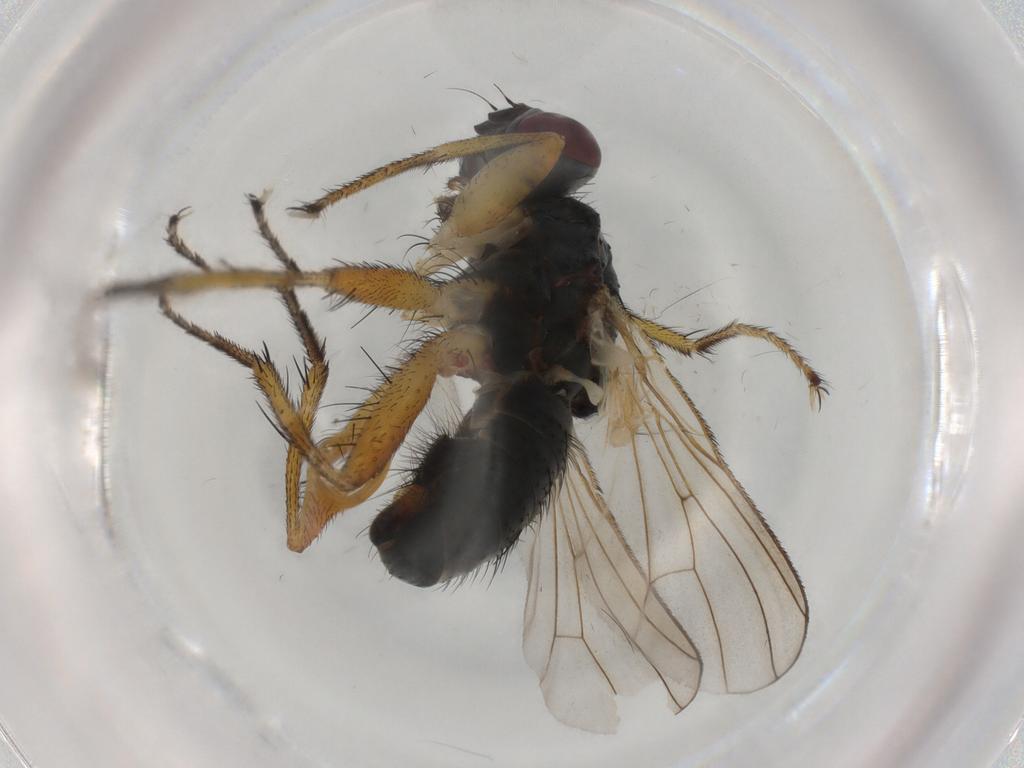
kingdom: Animalia
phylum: Arthropoda
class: Insecta
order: Diptera
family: Muscidae
